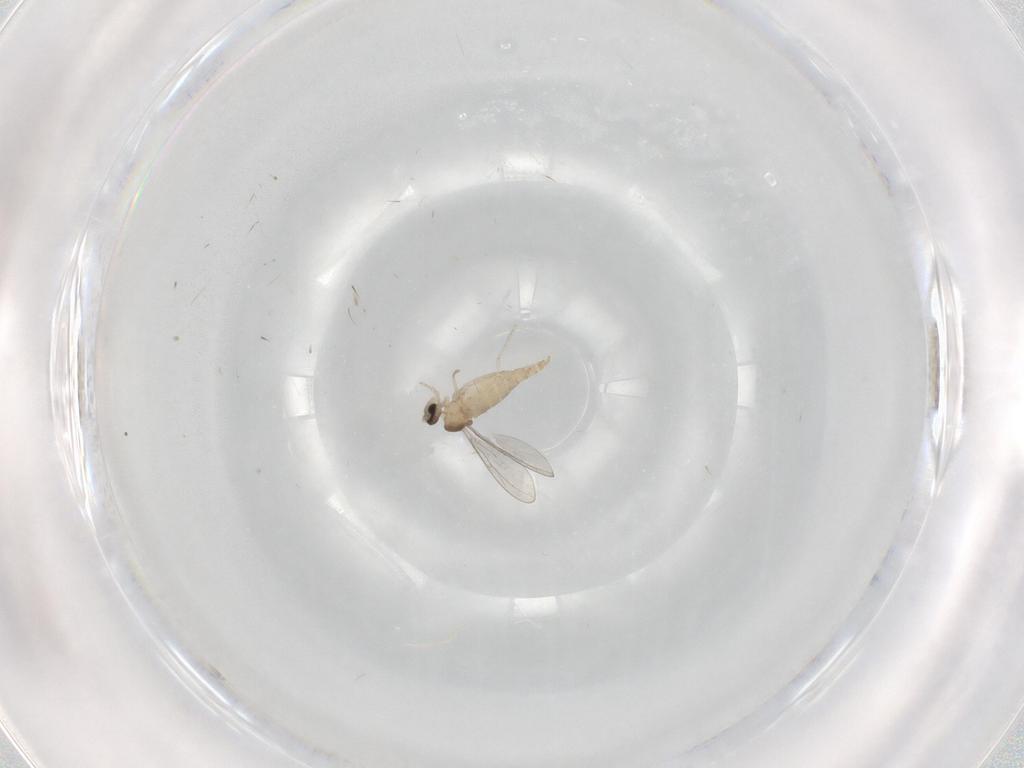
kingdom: Animalia
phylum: Arthropoda
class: Insecta
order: Diptera
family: Cecidomyiidae
